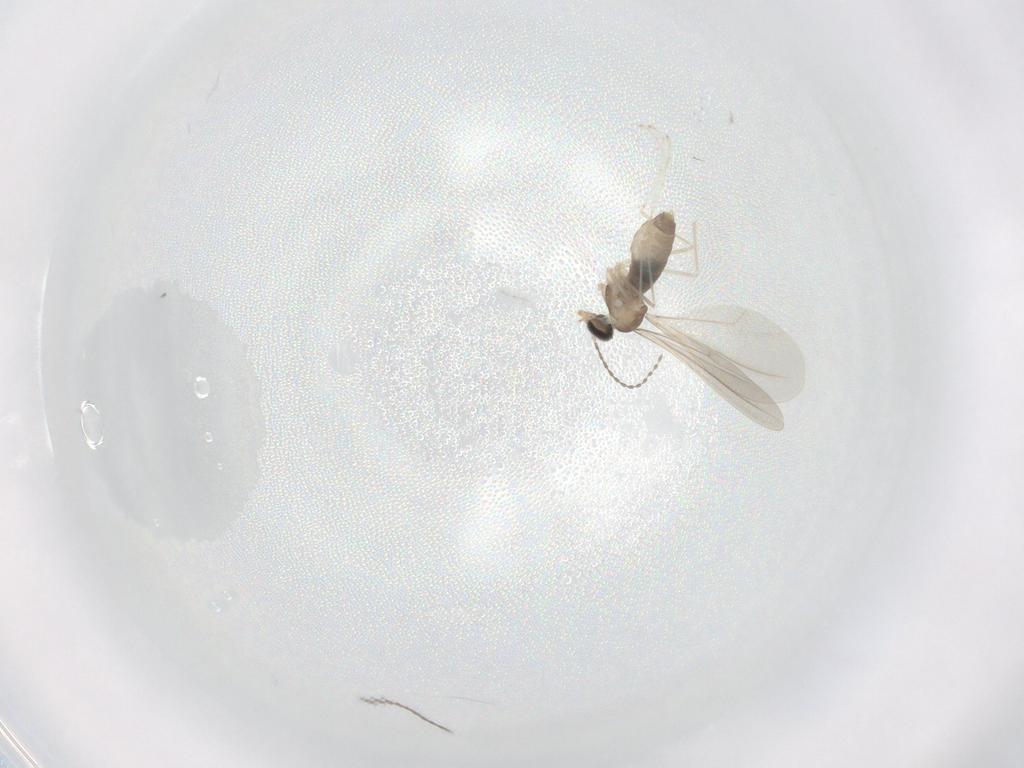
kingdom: Animalia
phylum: Arthropoda
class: Insecta
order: Diptera
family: Cecidomyiidae
